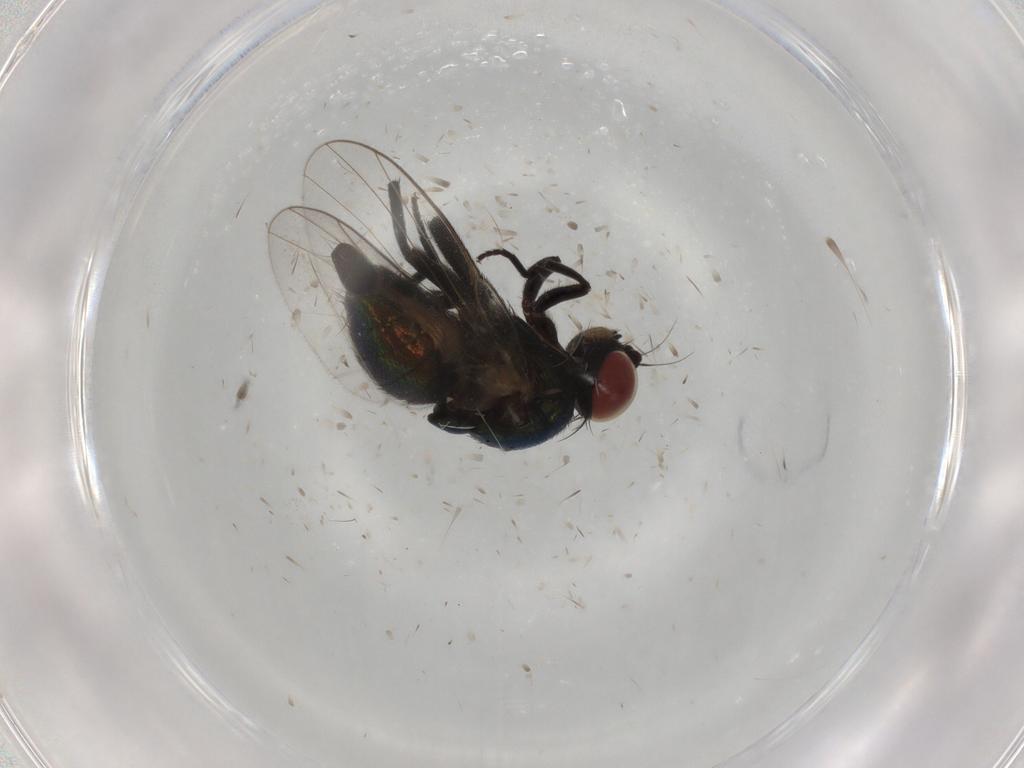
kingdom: Animalia
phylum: Arthropoda
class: Insecta
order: Diptera
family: Agromyzidae
